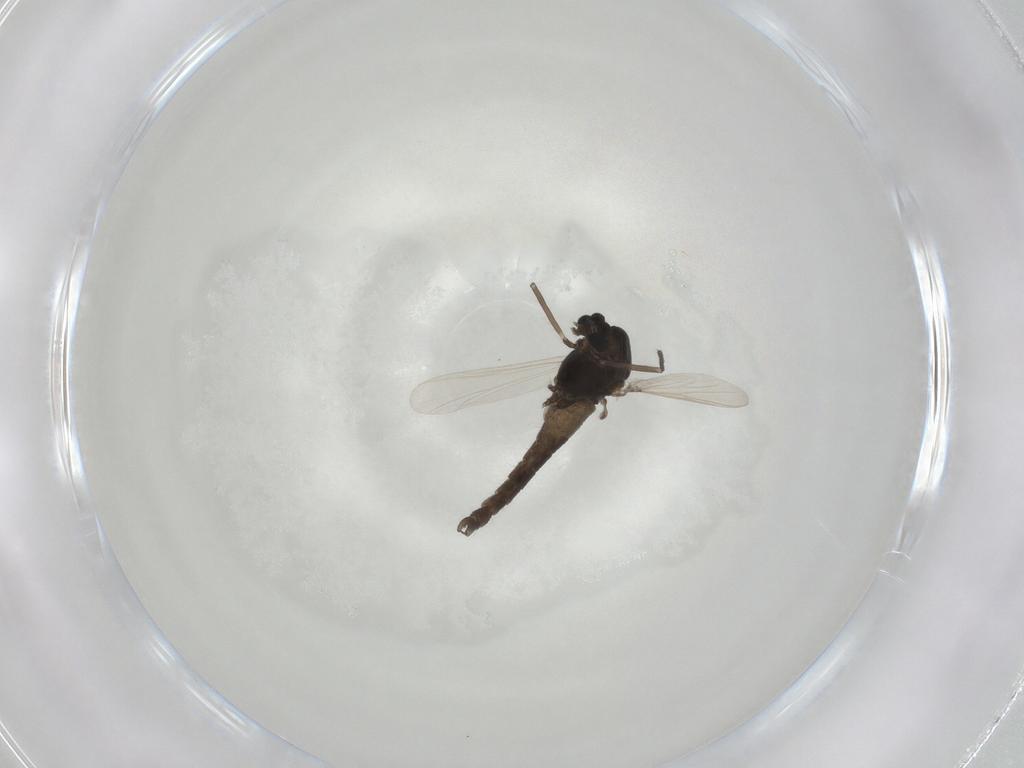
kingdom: Animalia
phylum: Arthropoda
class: Insecta
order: Diptera
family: Chironomidae
